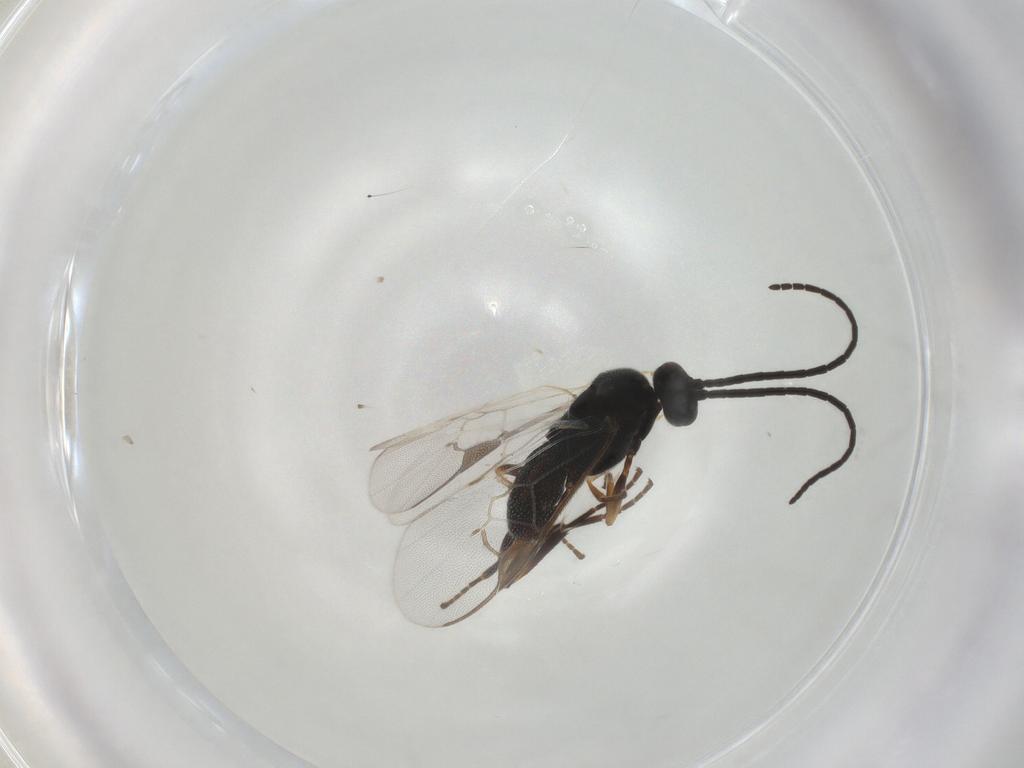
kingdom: Animalia
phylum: Arthropoda
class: Insecta
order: Hymenoptera
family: Braconidae
